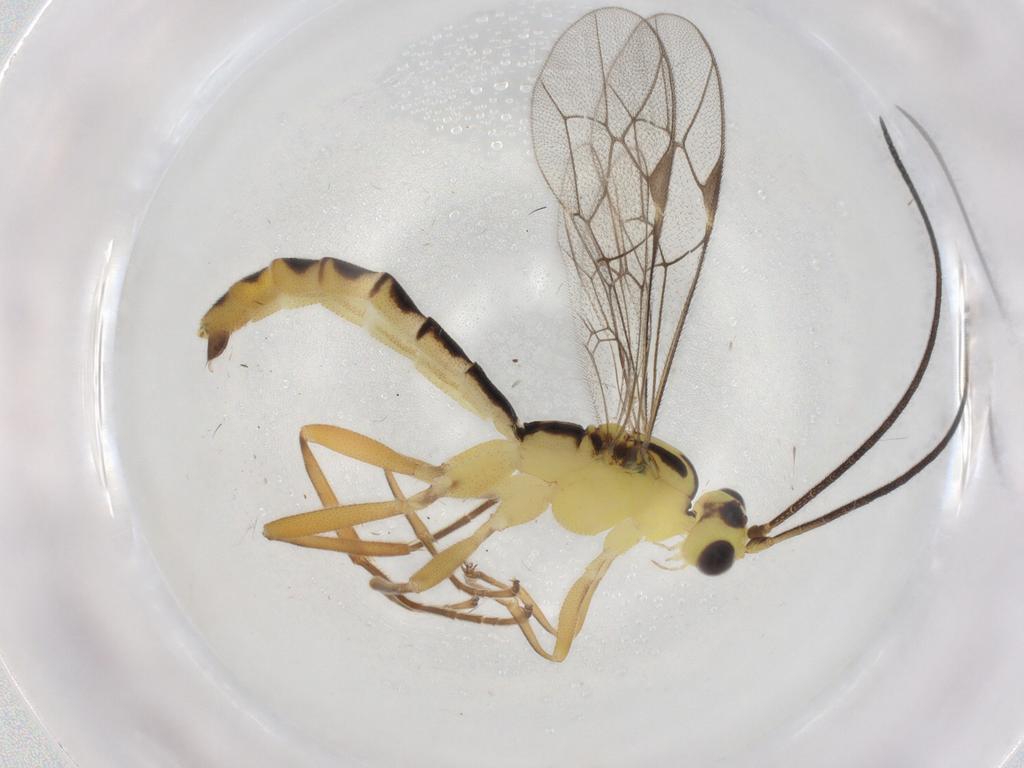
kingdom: Animalia
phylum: Arthropoda
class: Insecta
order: Hymenoptera
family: Ichneumonidae
